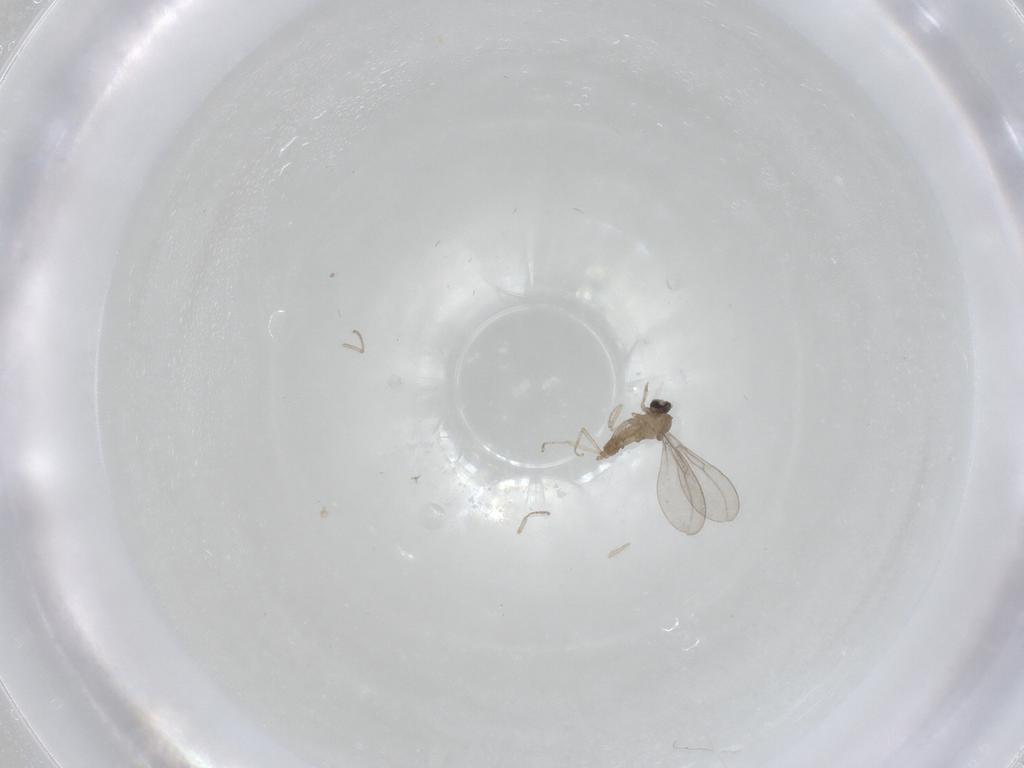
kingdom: Animalia
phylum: Arthropoda
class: Insecta
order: Diptera
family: Cecidomyiidae
